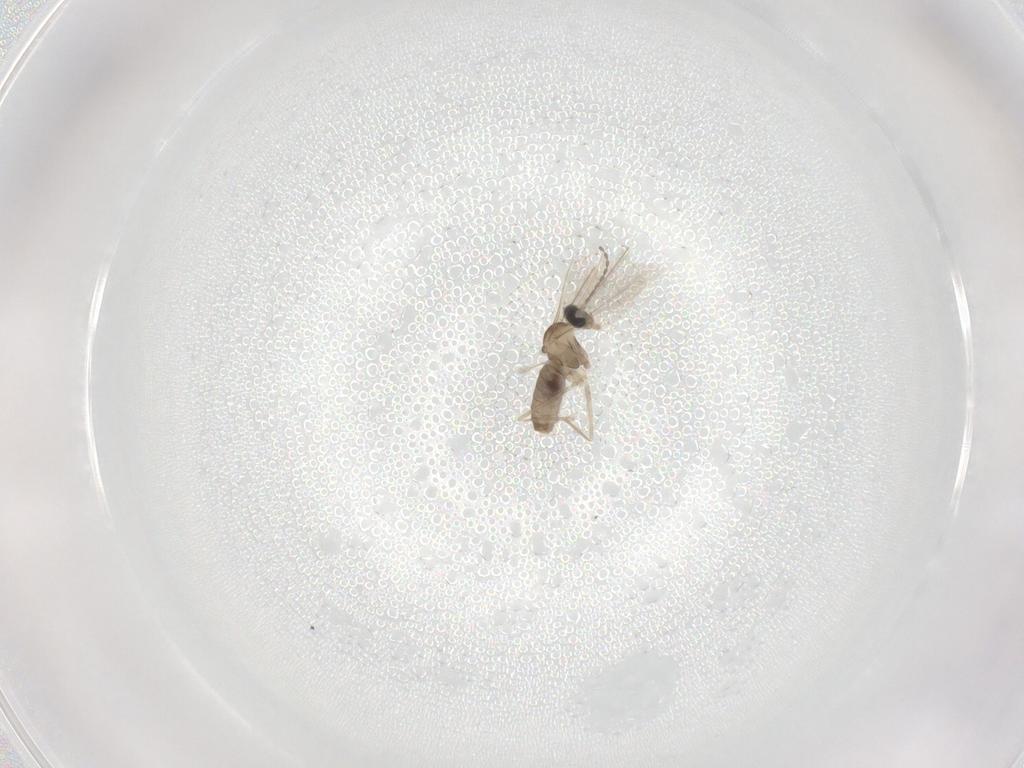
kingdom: Animalia
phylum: Arthropoda
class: Insecta
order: Diptera
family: Cecidomyiidae
